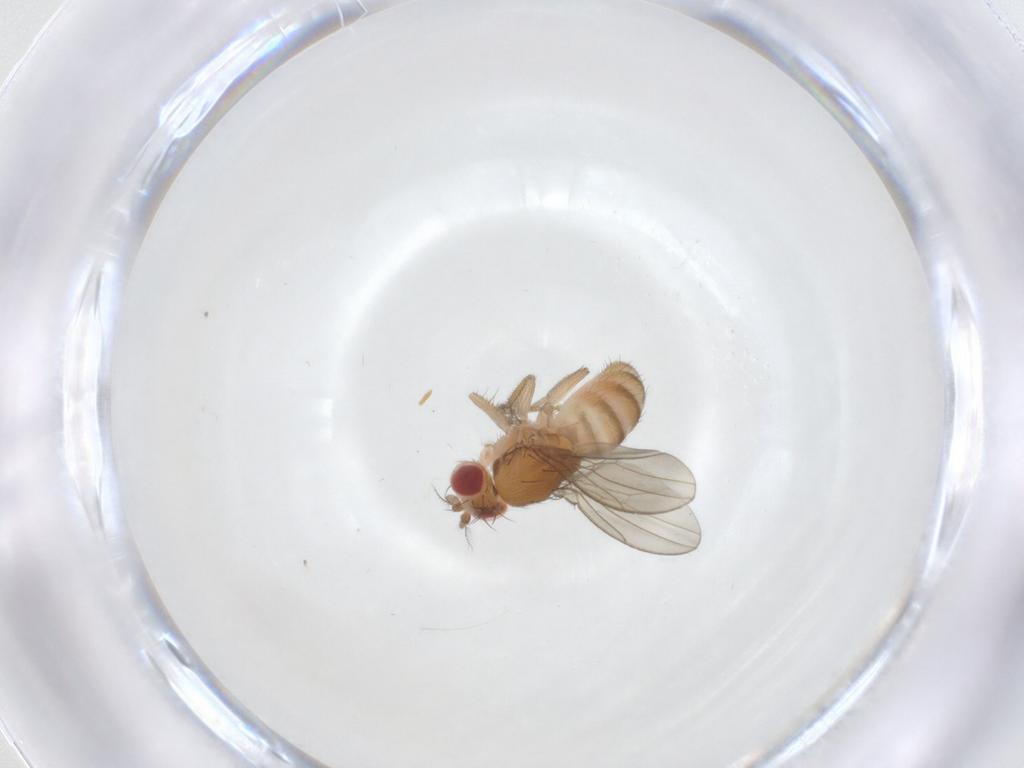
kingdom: Animalia
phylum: Arthropoda
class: Insecta
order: Diptera
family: Drosophilidae
